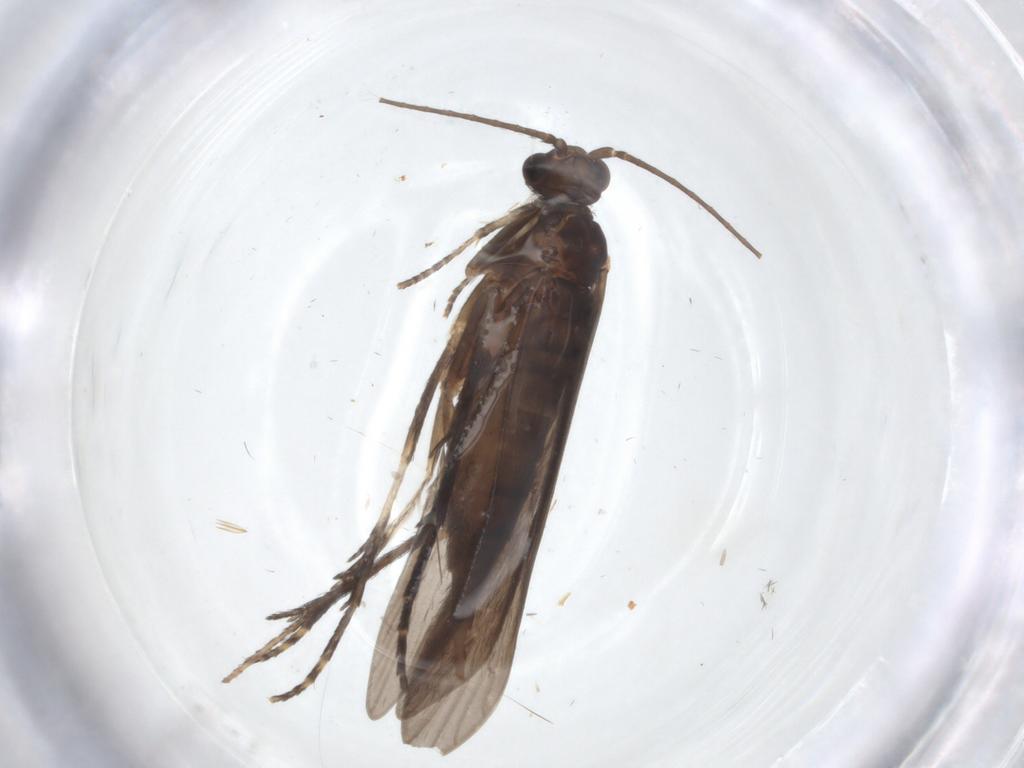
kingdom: Animalia
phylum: Arthropoda
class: Insecta
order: Trichoptera
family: Xiphocentronidae
